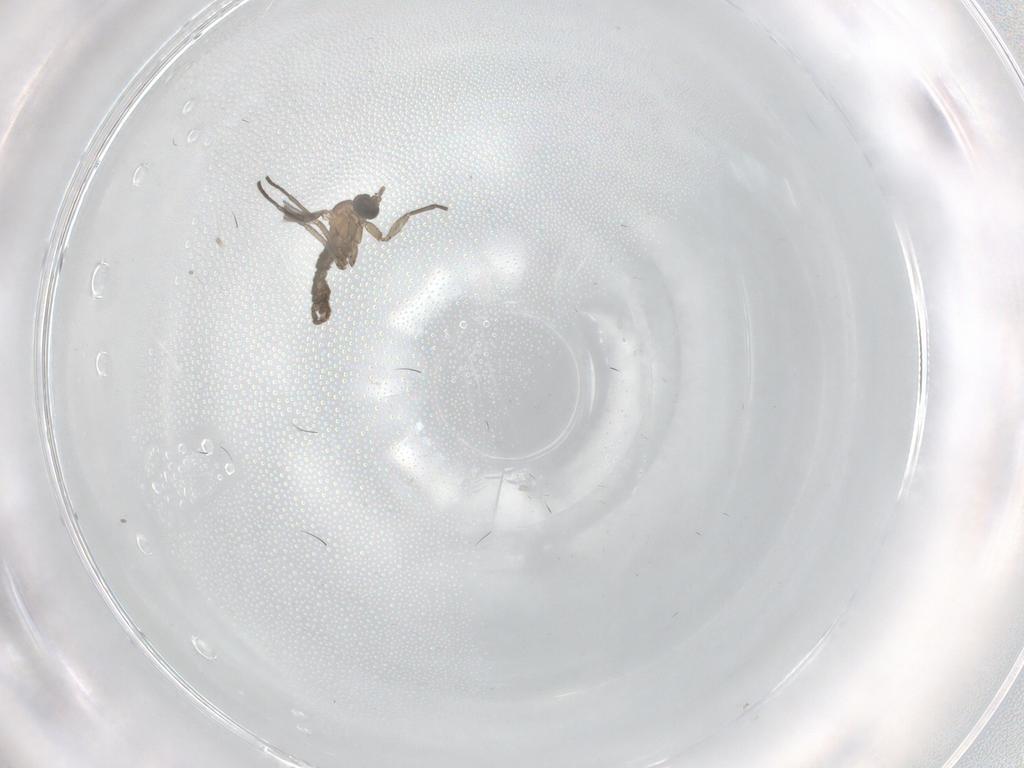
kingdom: Animalia
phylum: Arthropoda
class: Insecta
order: Diptera
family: Sciaridae
